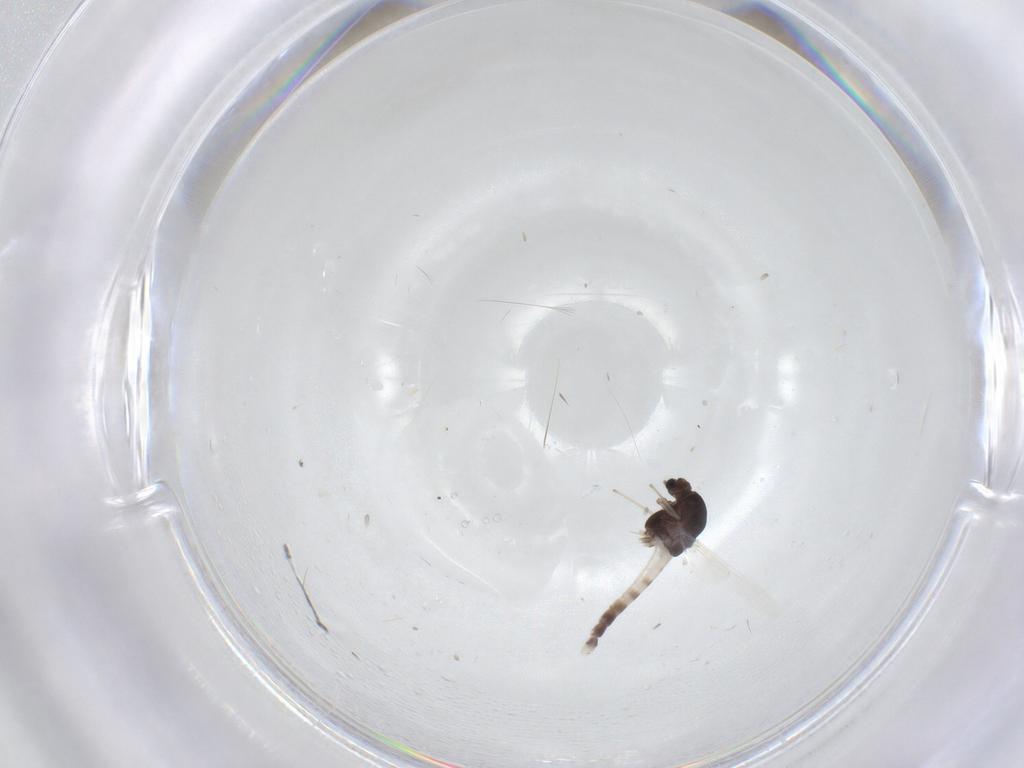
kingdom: Animalia
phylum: Arthropoda
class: Insecta
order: Diptera
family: Chironomidae
